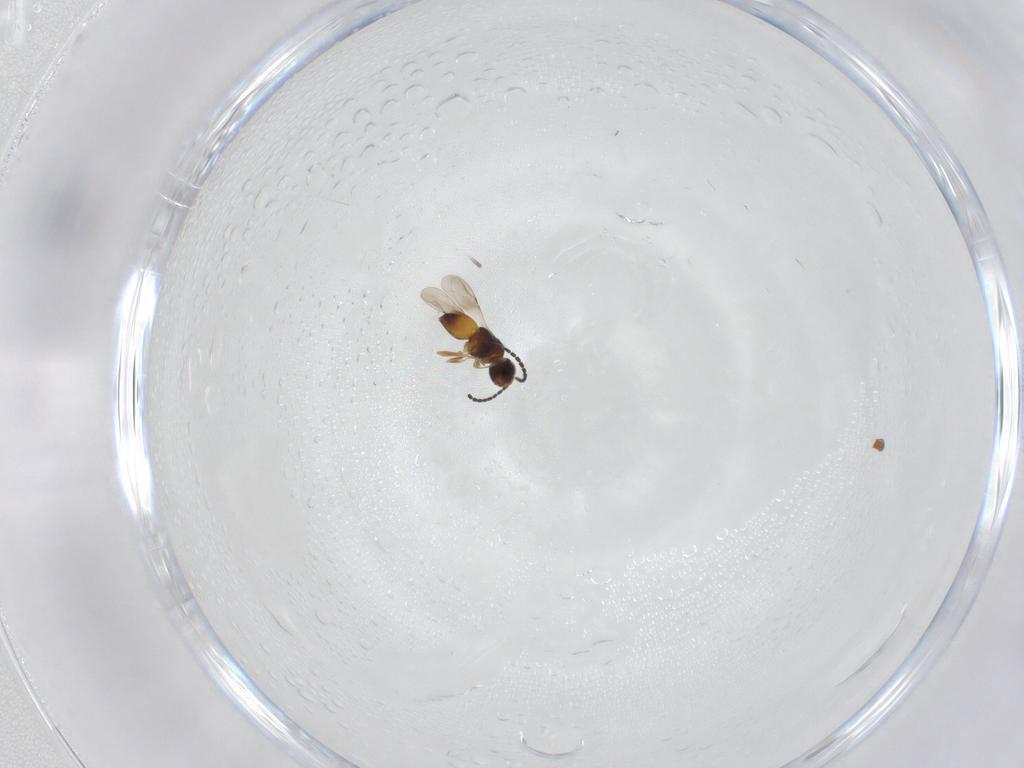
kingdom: Animalia
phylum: Arthropoda
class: Insecta
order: Hymenoptera
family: Ceraphronidae
